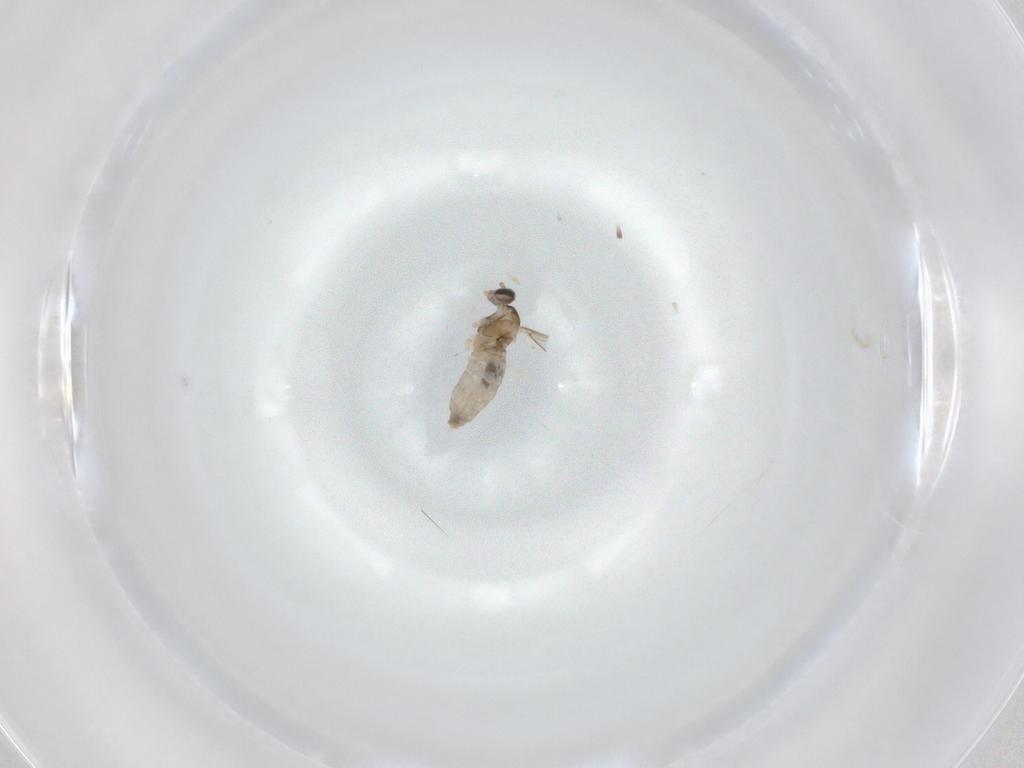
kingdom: Animalia
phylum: Arthropoda
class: Insecta
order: Diptera
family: Cecidomyiidae
